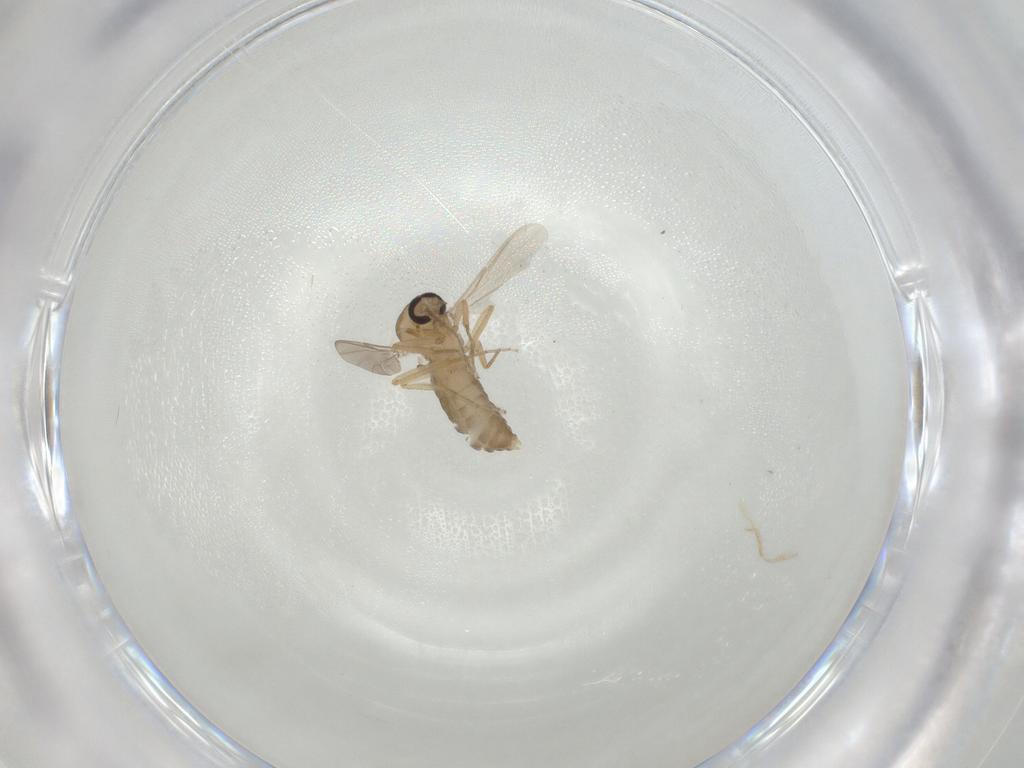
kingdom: Animalia
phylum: Arthropoda
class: Insecta
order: Diptera
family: Ceratopogonidae
